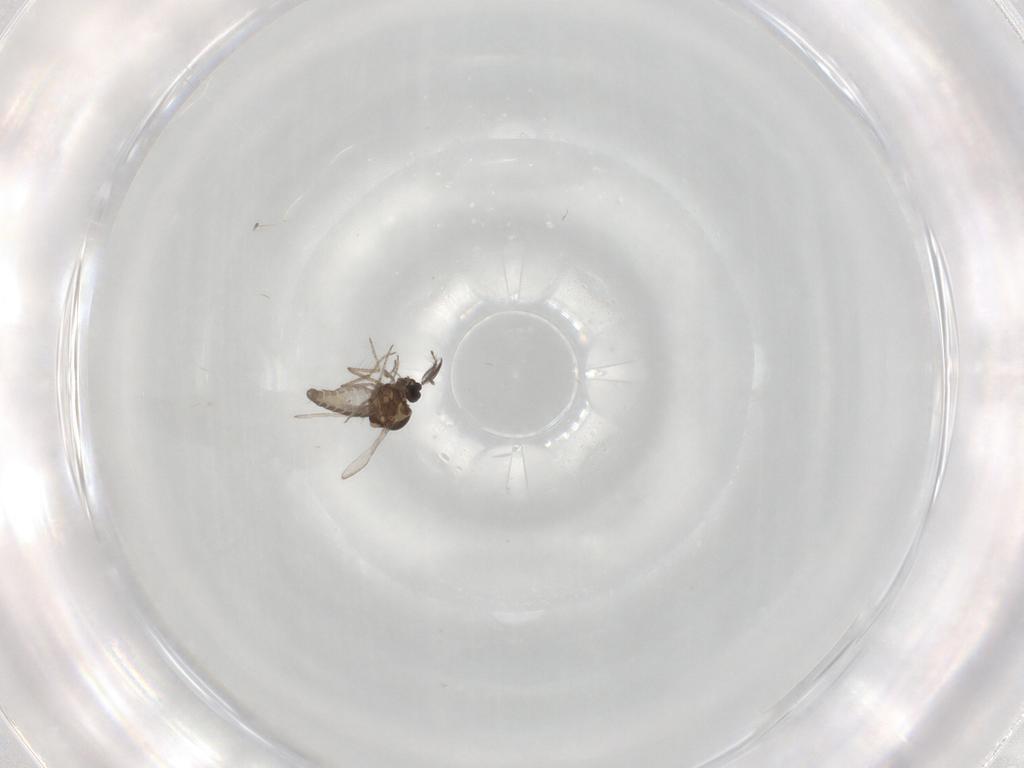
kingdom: Animalia
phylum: Arthropoda
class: Insecta
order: Diptera
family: Ceratopogonidae
